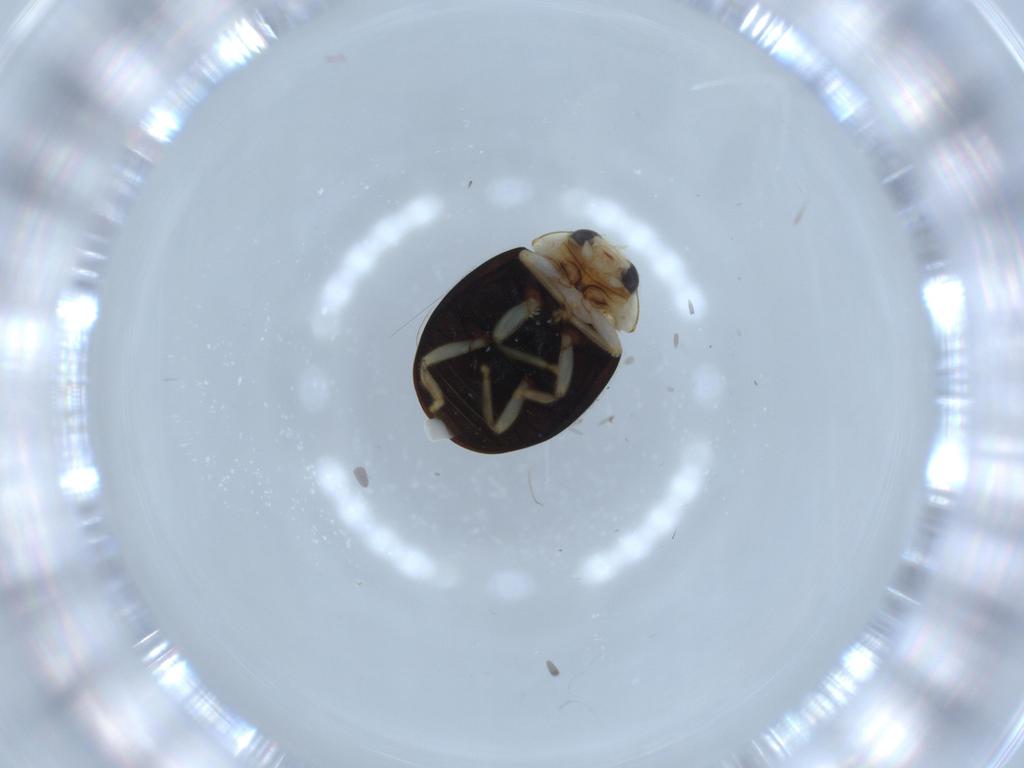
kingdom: Animalia
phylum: Arthropoda
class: Insecta
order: Coleoptera
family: Coccinellidae
